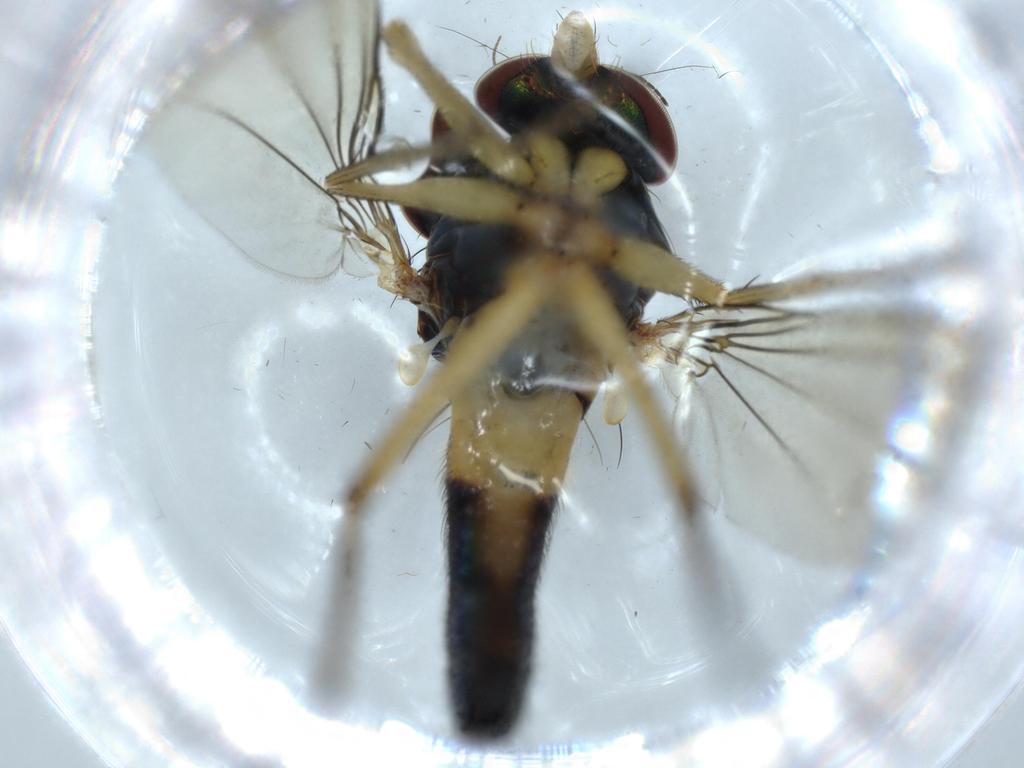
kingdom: Animalia
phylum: Arthropoda
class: Insecta
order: Diptera
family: Dolichopodidae
